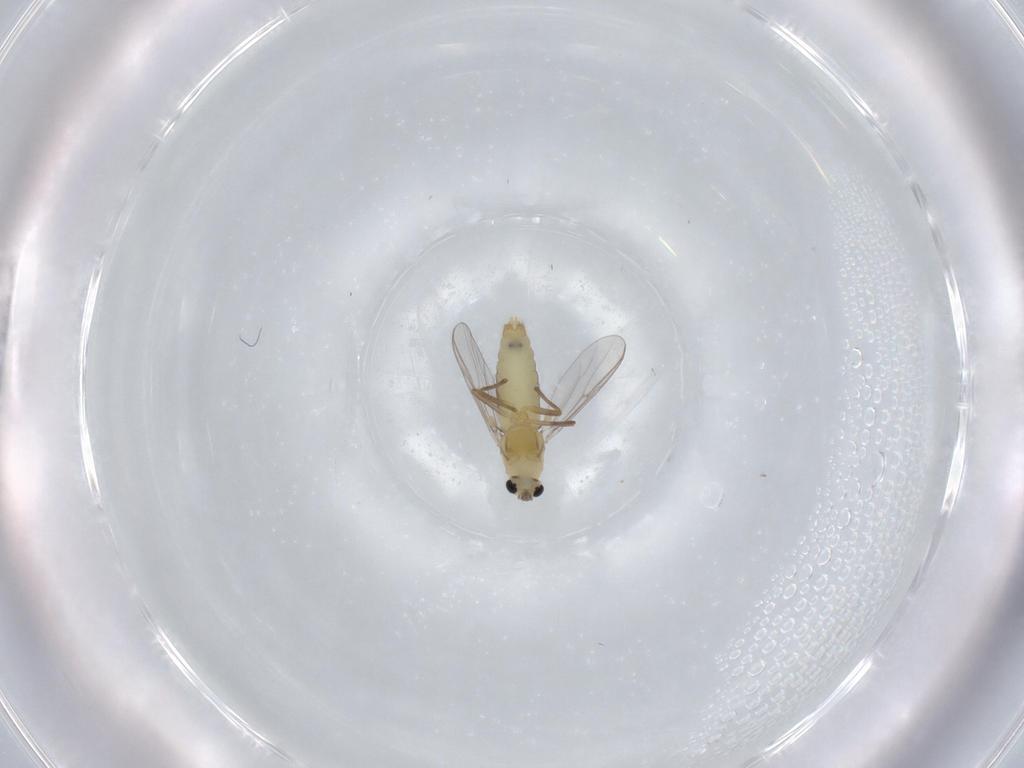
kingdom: Animalia
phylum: Arthropoda
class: Insecta
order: Diptera
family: Chironomidae
